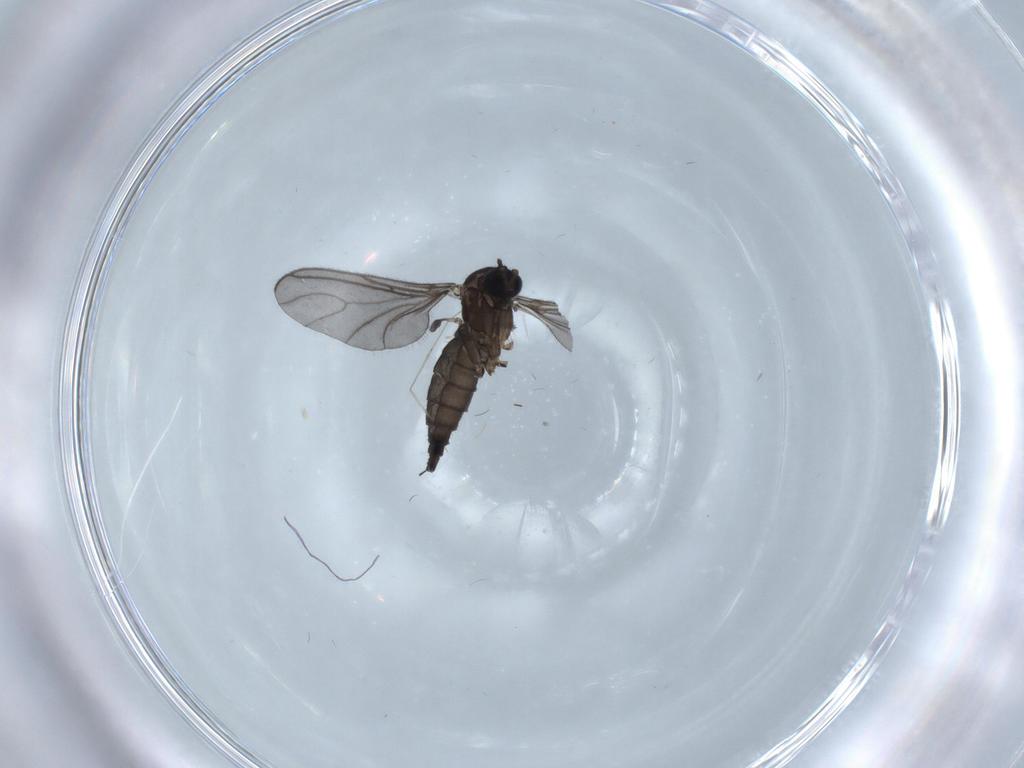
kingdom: Animalia
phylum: Arthropoda
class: Insecta
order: Diptera
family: Sciaridae
